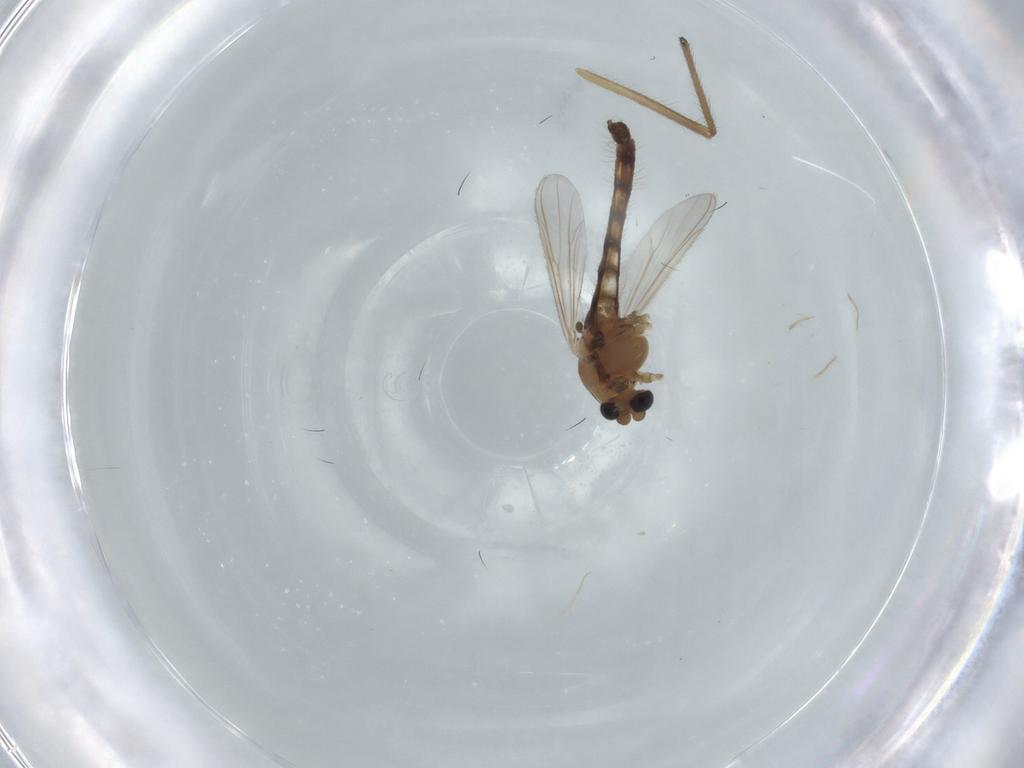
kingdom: Animalia
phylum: Arthropoda
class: Insecta
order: Diptera
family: Chironomidae
